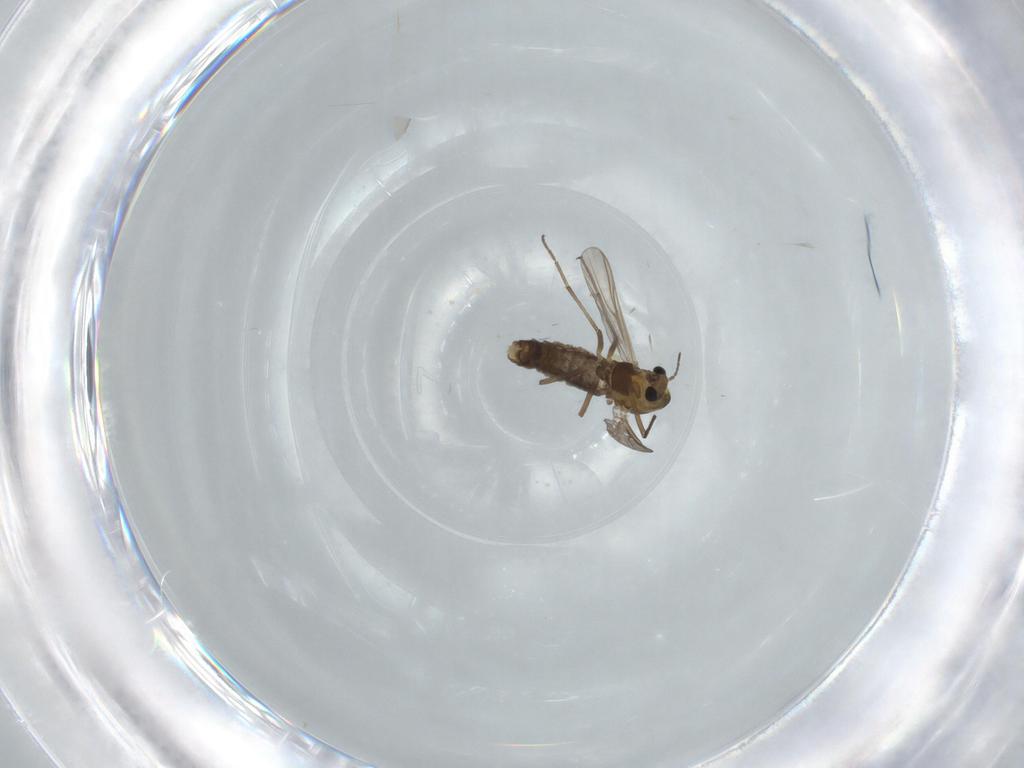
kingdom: Animalia
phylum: Arthropoda
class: Insecta
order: Diptera
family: Chironomidae
